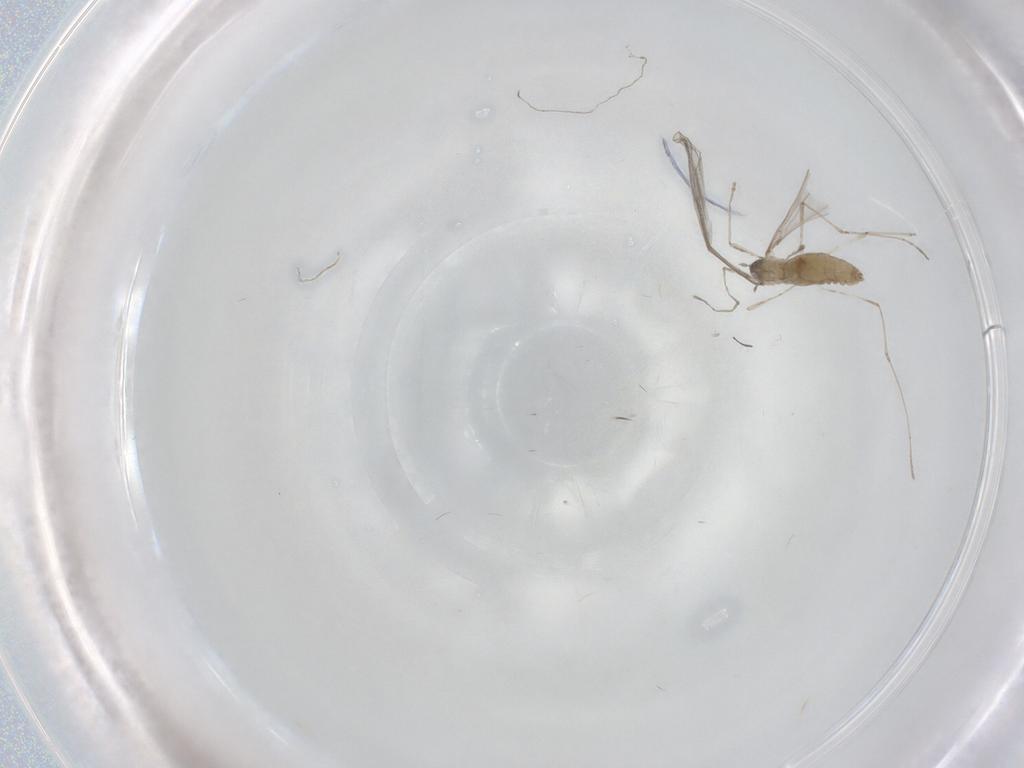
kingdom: Animalia
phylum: Arthropoda
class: Insecta
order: Diptera
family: Cecidomyiidae
